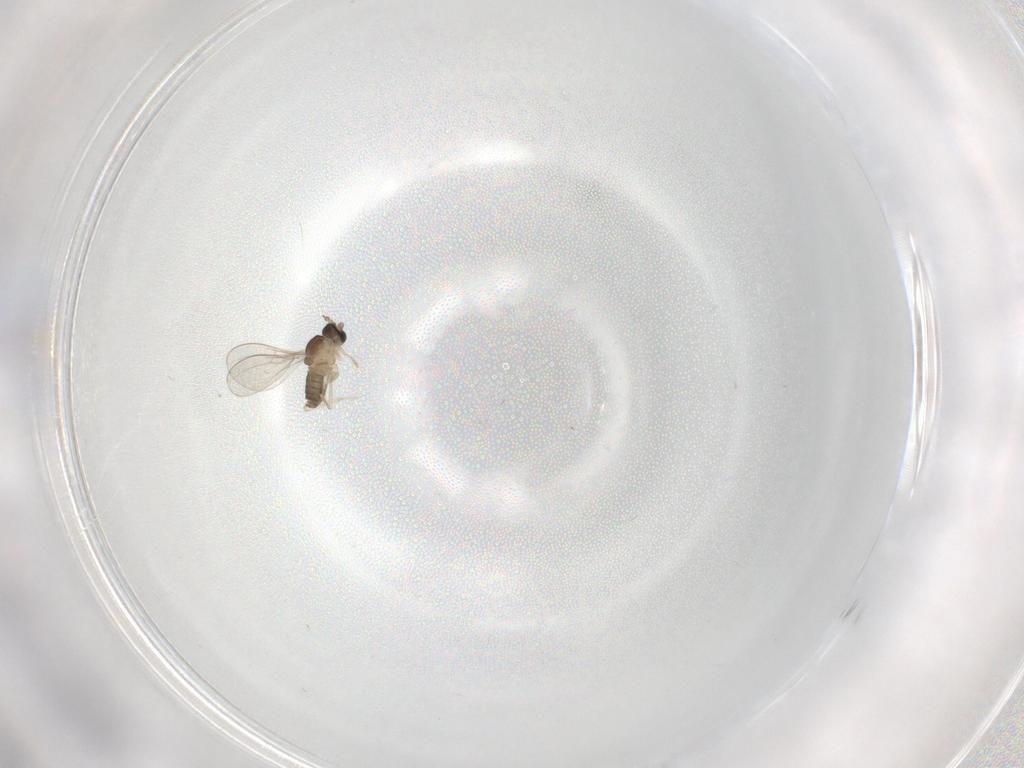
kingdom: Animalia
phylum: Arthropoda
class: Insecta
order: Diptera
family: Cecidomyiidae
